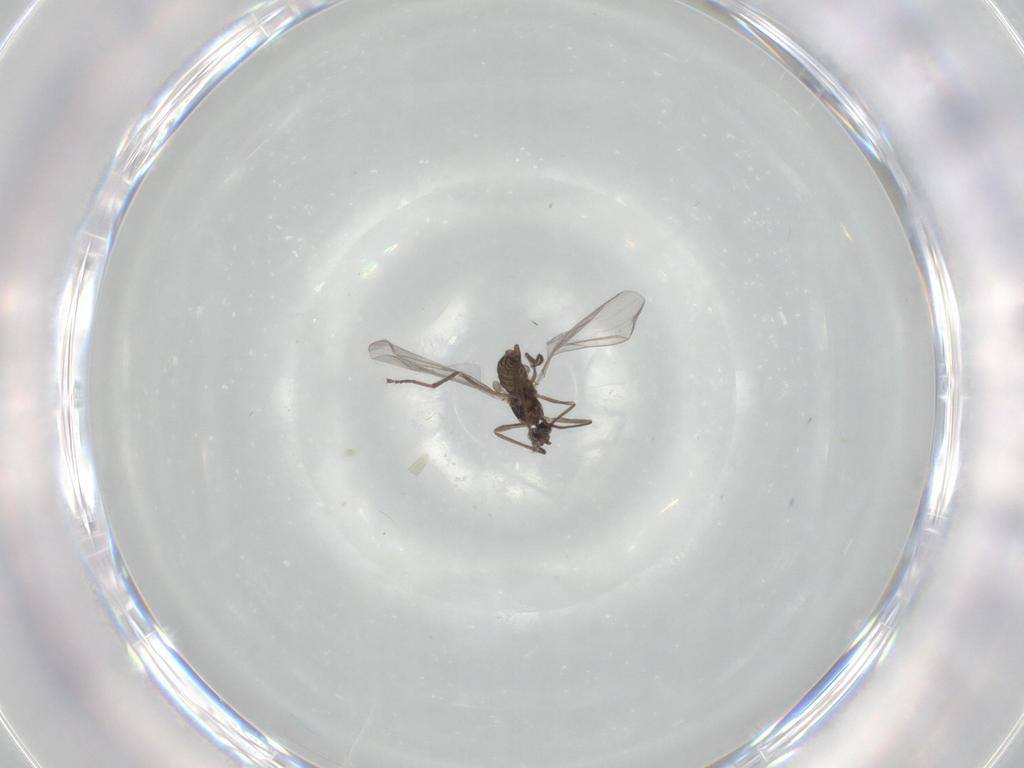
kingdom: Animalia
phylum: Arthropoda
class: Insecta
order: Diptera
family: Cecidomyiidae
